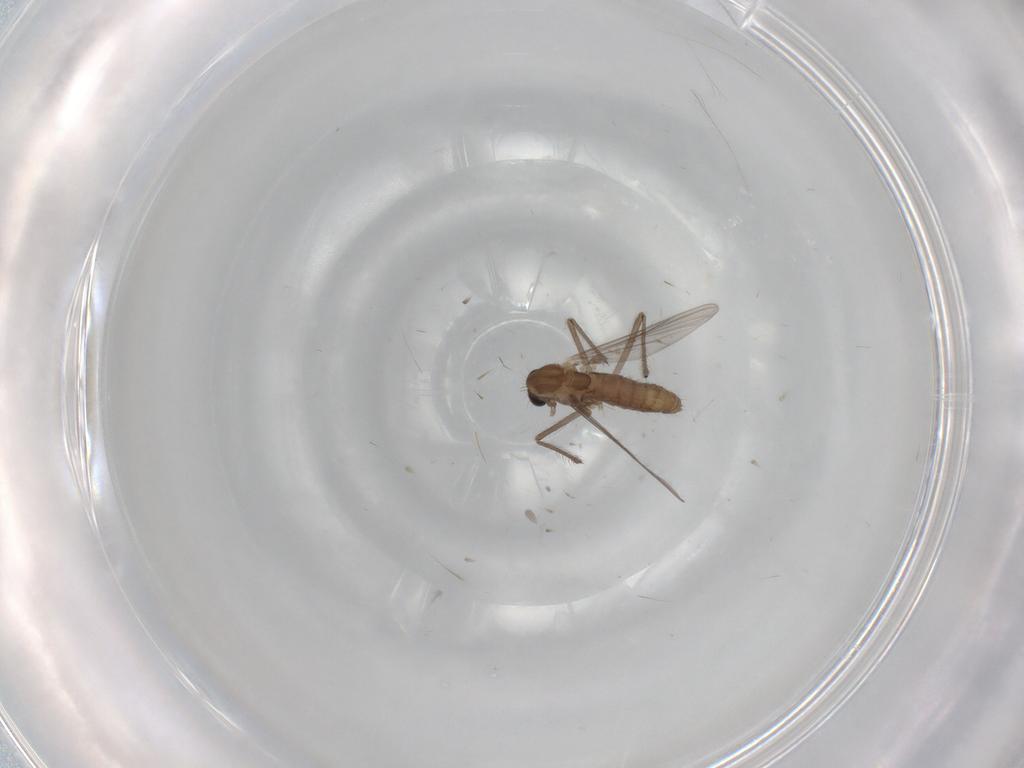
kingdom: Animalia
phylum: Arthropoda
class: Insecta
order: Diptera
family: Chironomidae
